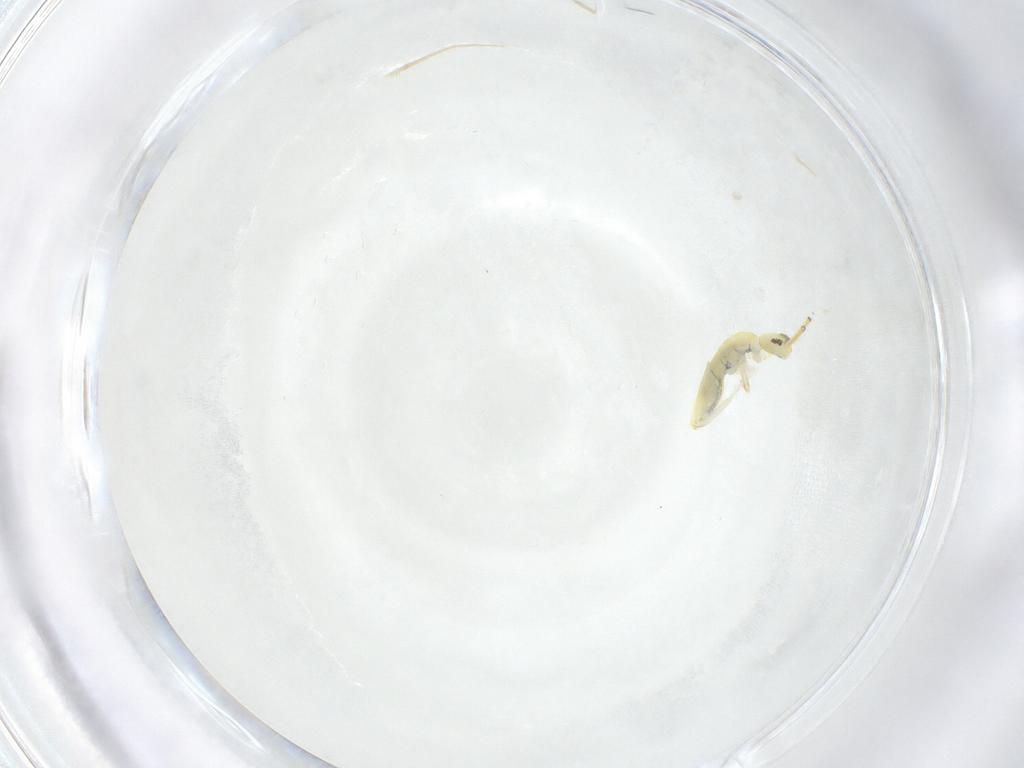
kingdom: Animalia
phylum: Arthropoda
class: Collembola
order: Entomobryomorpha
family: Paronellidae
